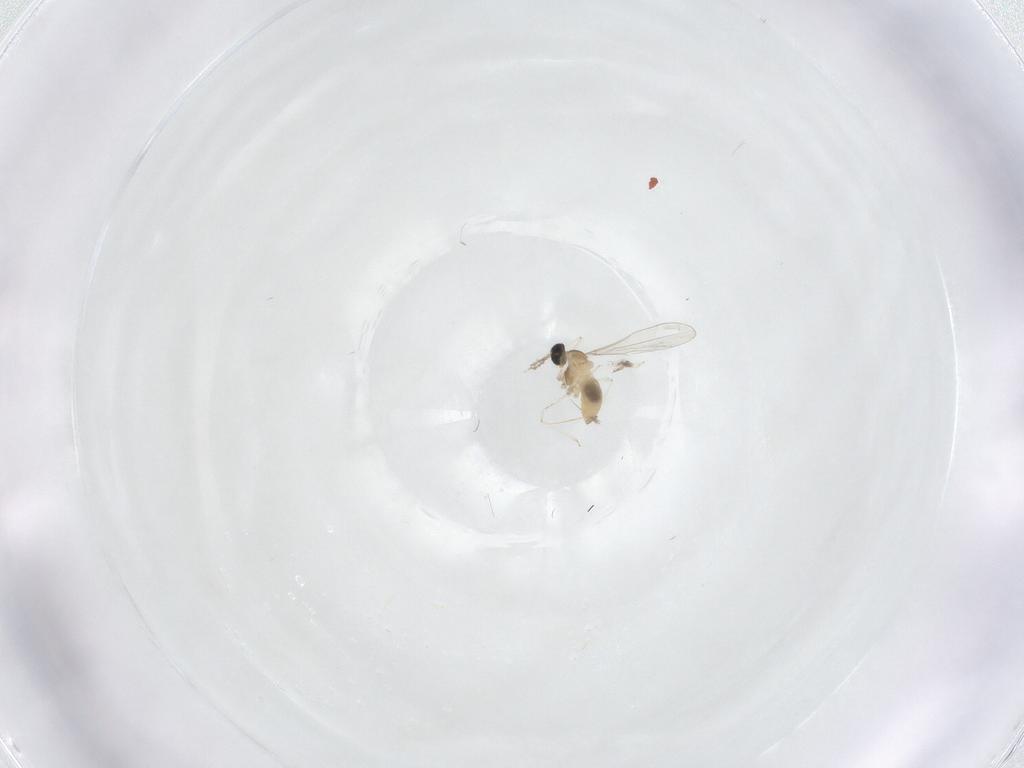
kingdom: Animalia
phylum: Arthropoda
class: Insecta
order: Diptera
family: Cecidomyiidae
